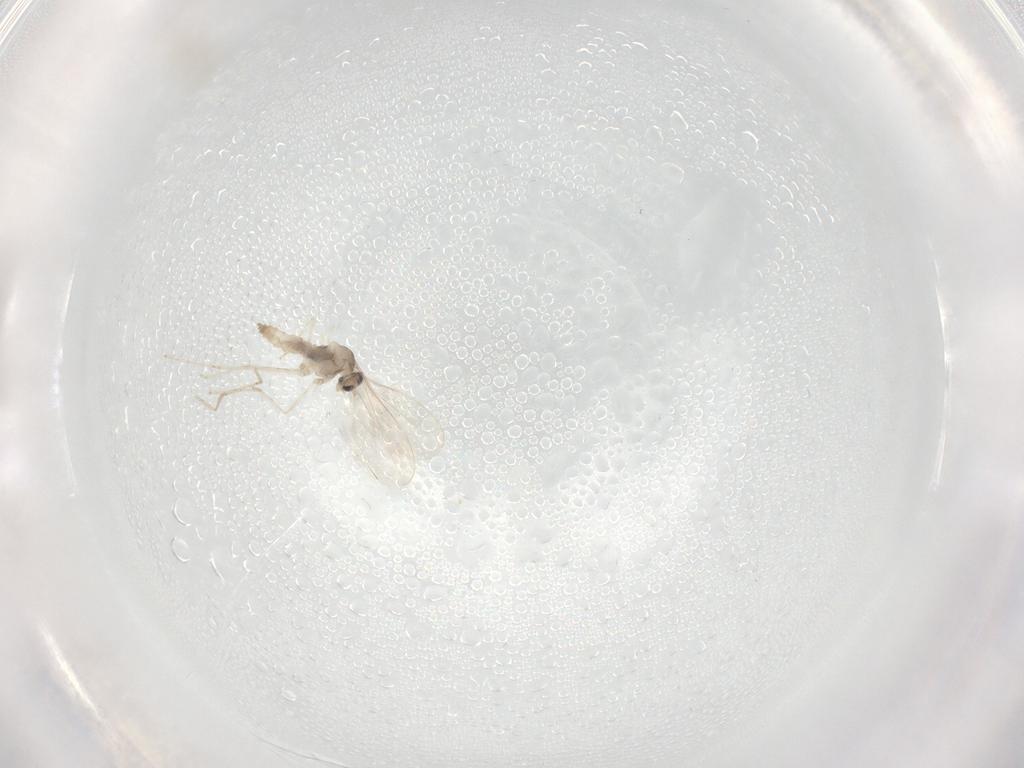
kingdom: Animalia
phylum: Arthropoda
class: Insecta
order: Diptera
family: Cecidomyiidae
